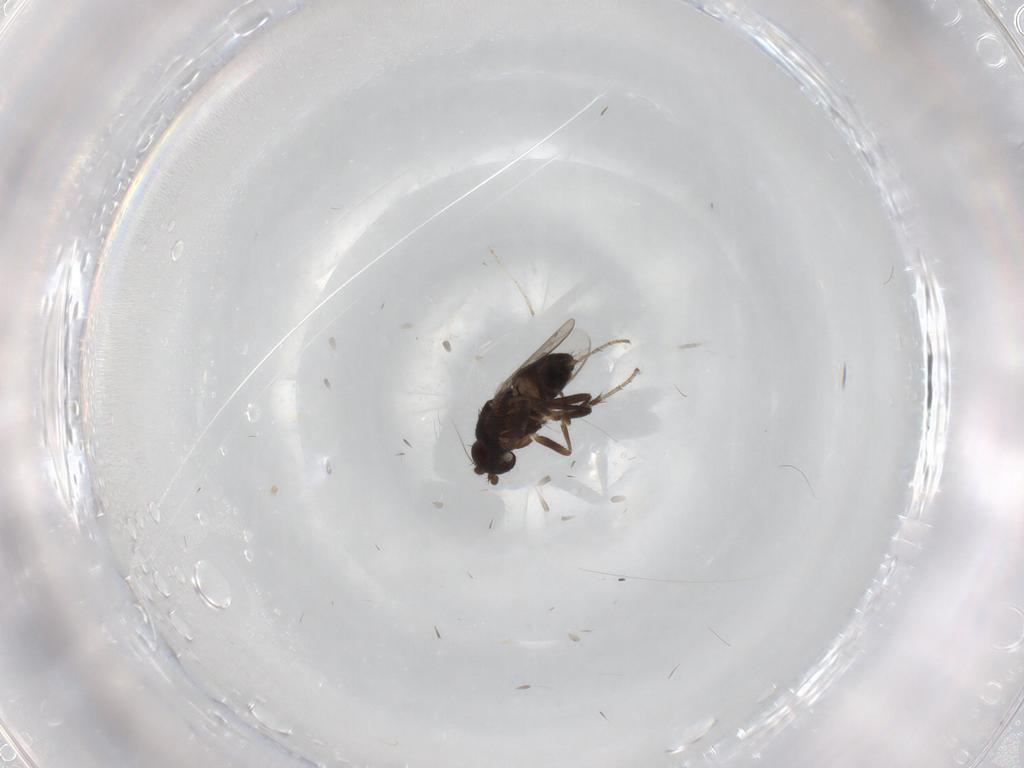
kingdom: Animalia
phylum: Arthropoda
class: Insecta
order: Diptera
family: Sphaeroceridae
